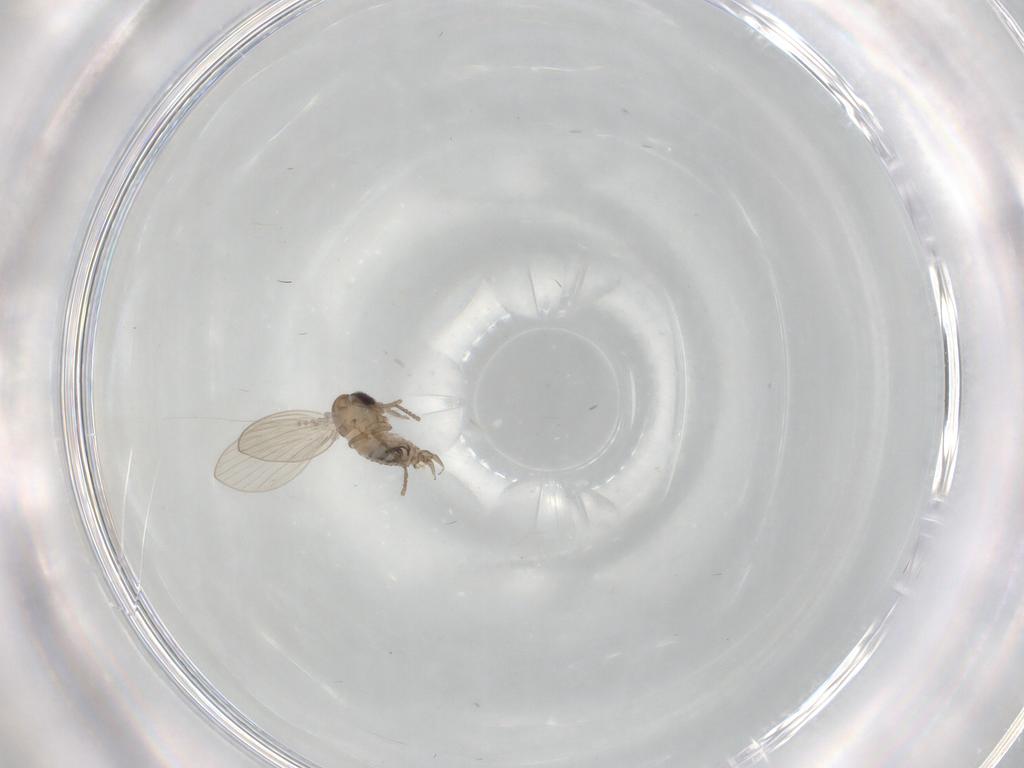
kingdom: Animalia
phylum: Arthropoda
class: Insecta
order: Diptera
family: Psychodidae
